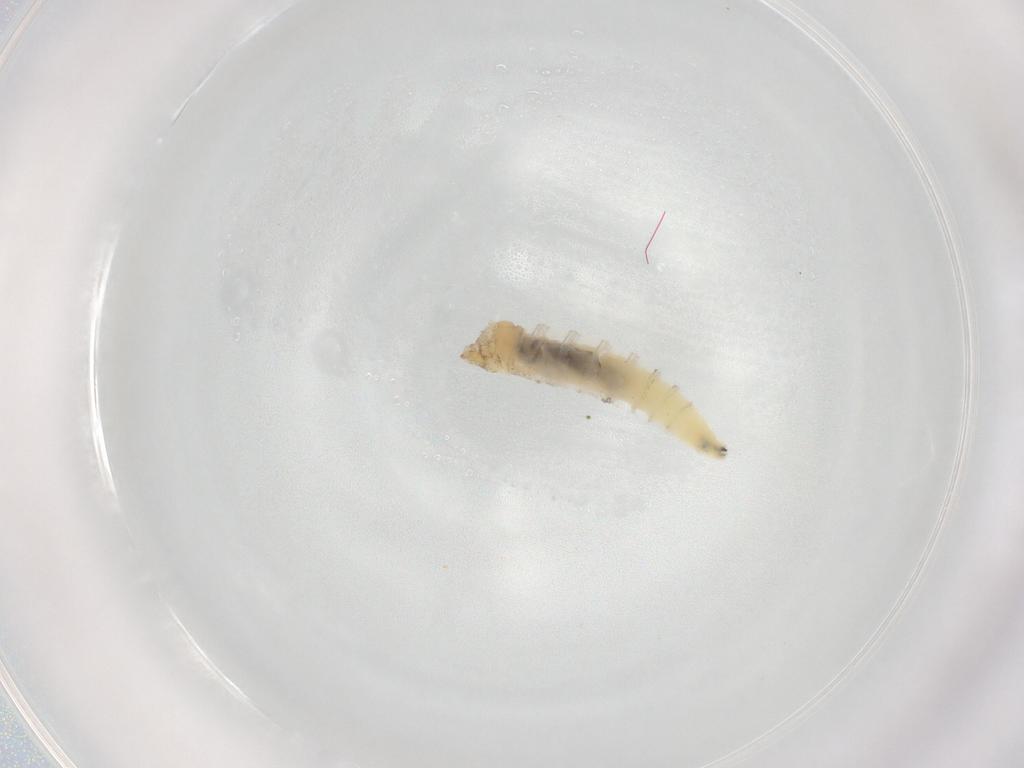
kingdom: Animalia
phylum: Arthropoda
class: Insecta
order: Diptera
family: Drosophilidae
